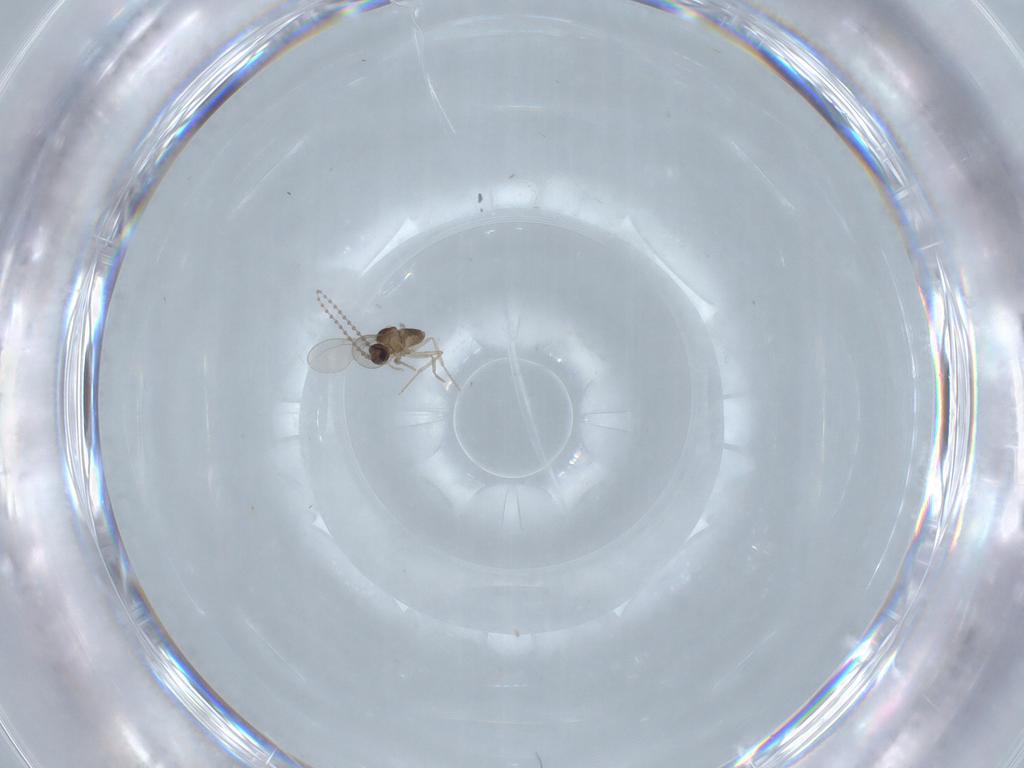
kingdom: Animalia
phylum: Arthropoda
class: Insecta
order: Diptera
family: Cecidomyiidae
